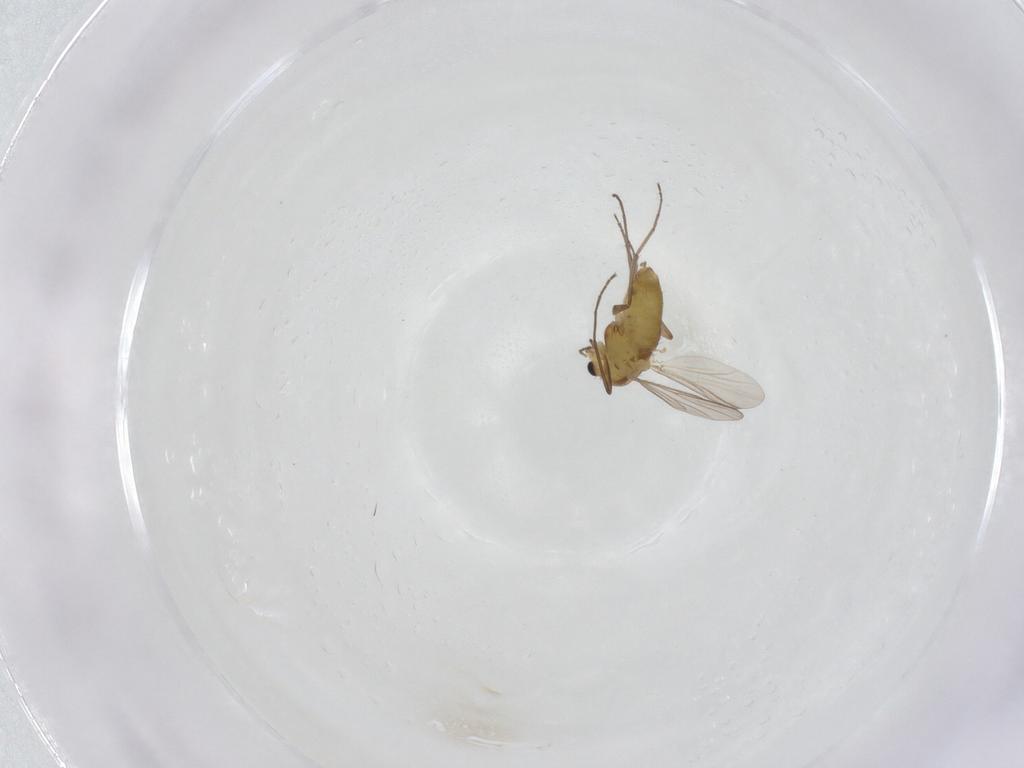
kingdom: Animalia
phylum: Arthropoda
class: Insecta
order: Diptera
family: Chironomidae
